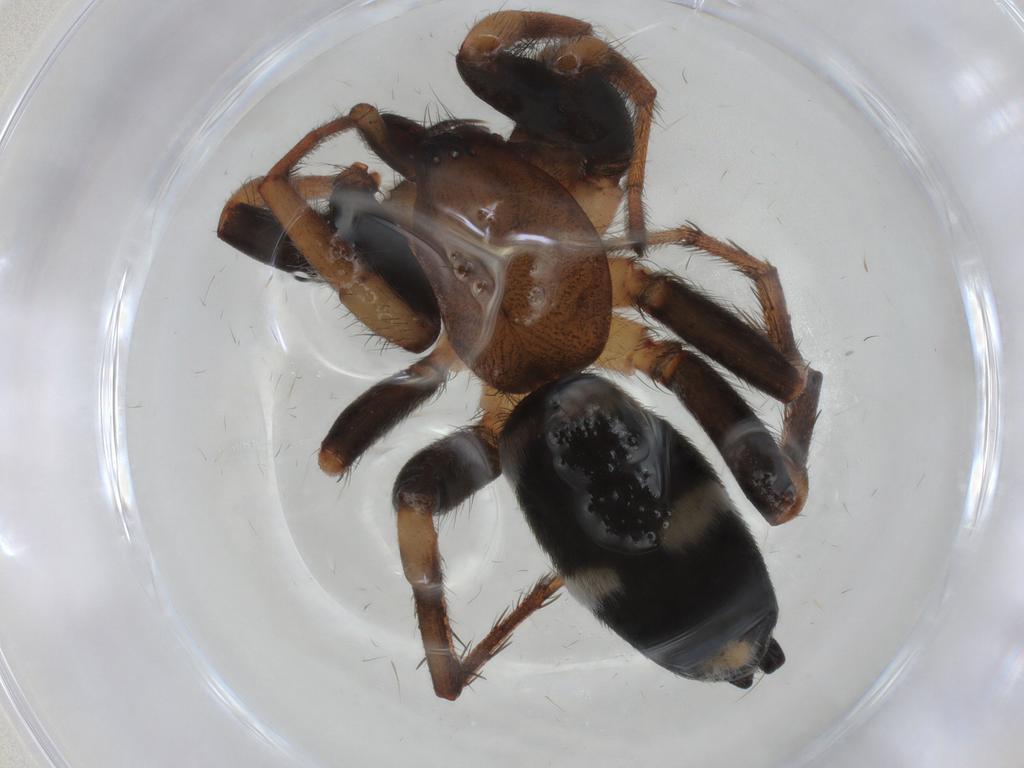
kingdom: Animalia
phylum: Arthropoda
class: Arachnida
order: Araneae
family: Gnaphosidae
